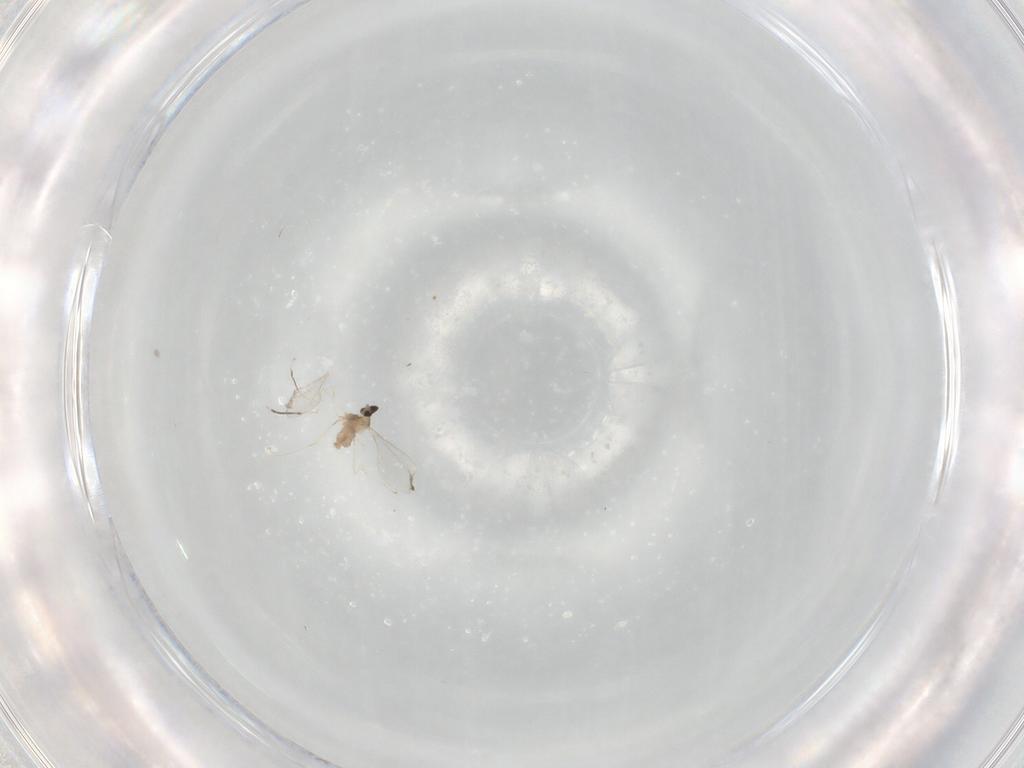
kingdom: Animalia
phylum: Arthropoda
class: Insecta
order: Diptera
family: Cecidomyiidae
